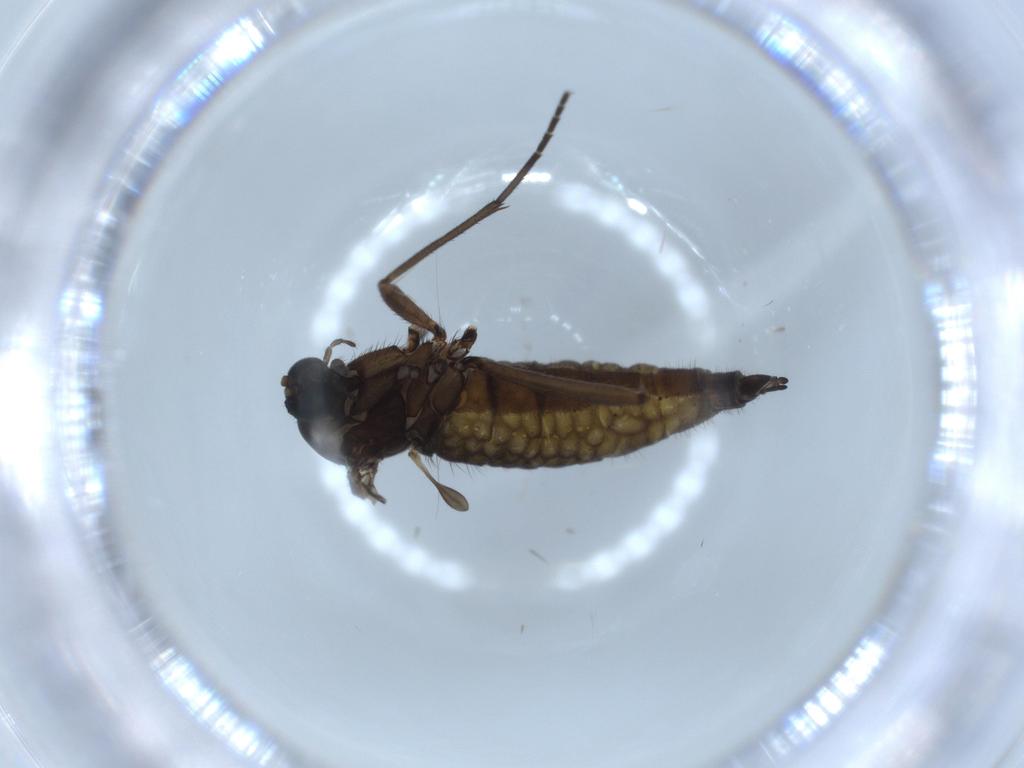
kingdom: Animalia
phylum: Arthropoda
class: Insecta
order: Diptera
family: Sciaridae
